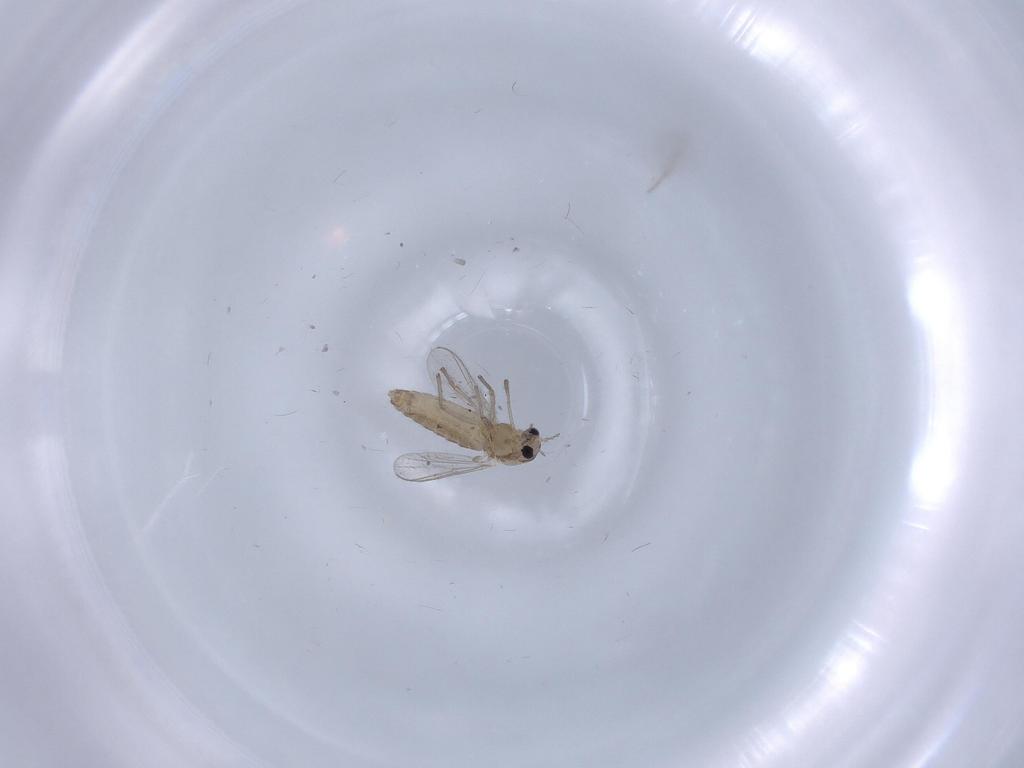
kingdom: Animalia
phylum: Arthropoda
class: Insecta
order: Diptera
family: Chironomidae
